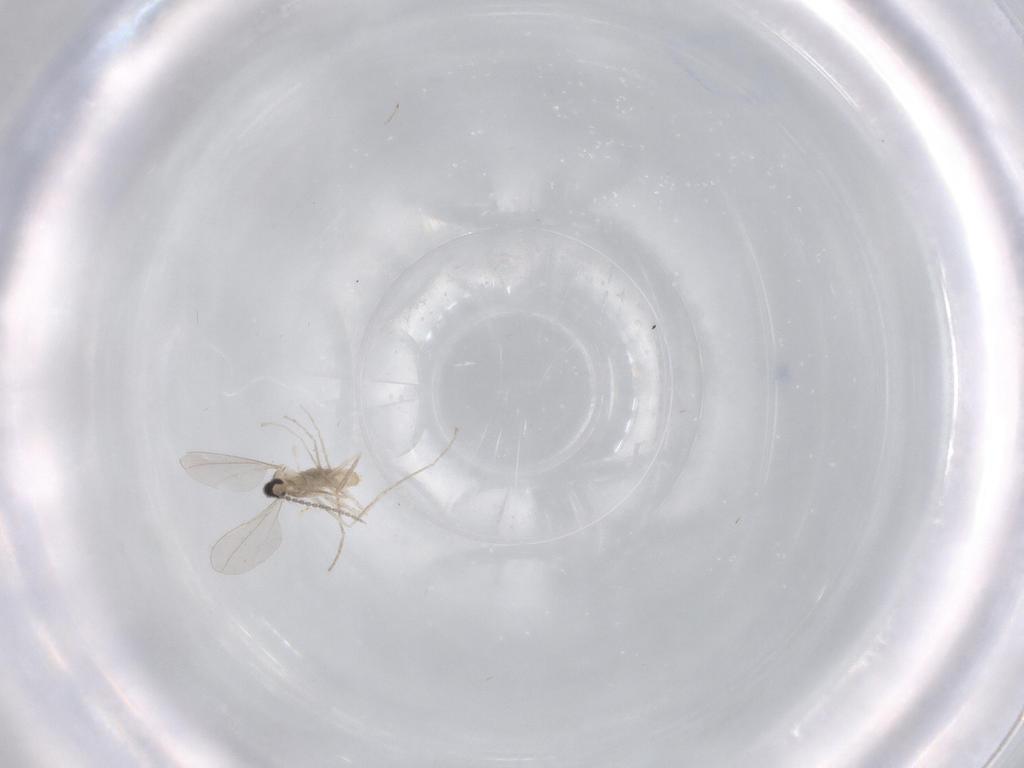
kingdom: Animalia
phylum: Arthropoda
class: Insecta
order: Diptera
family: Cecidomyiidae
